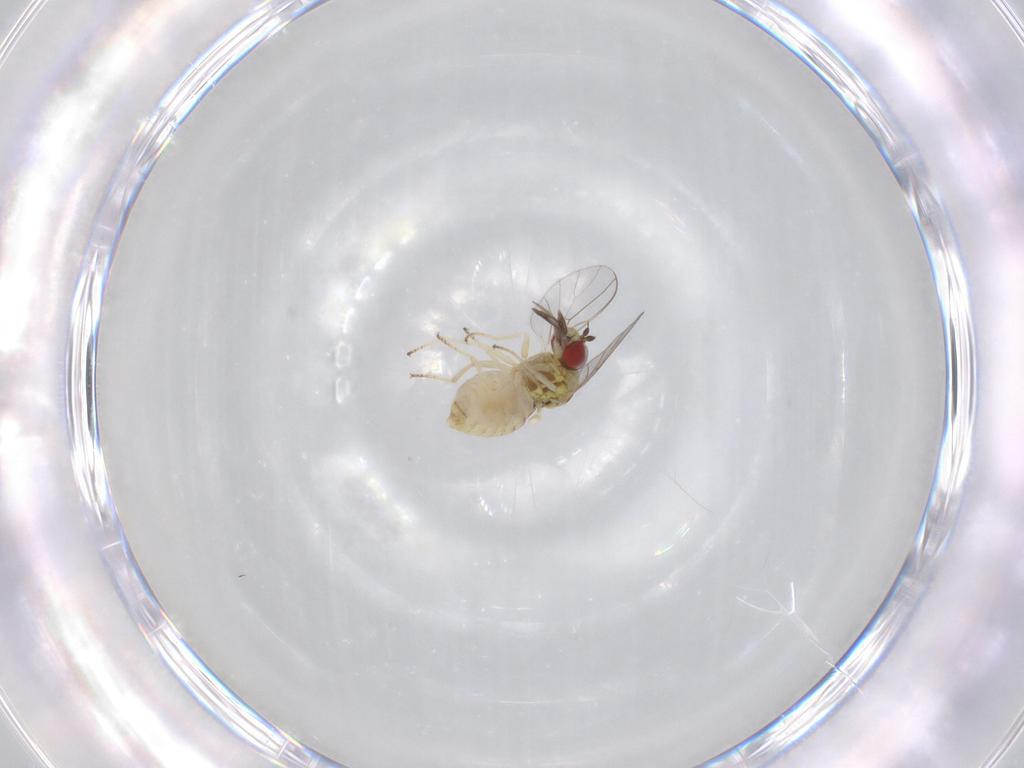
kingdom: Animalia
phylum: Arthropoda
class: Insecta
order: Diptera
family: Bombyliidae
